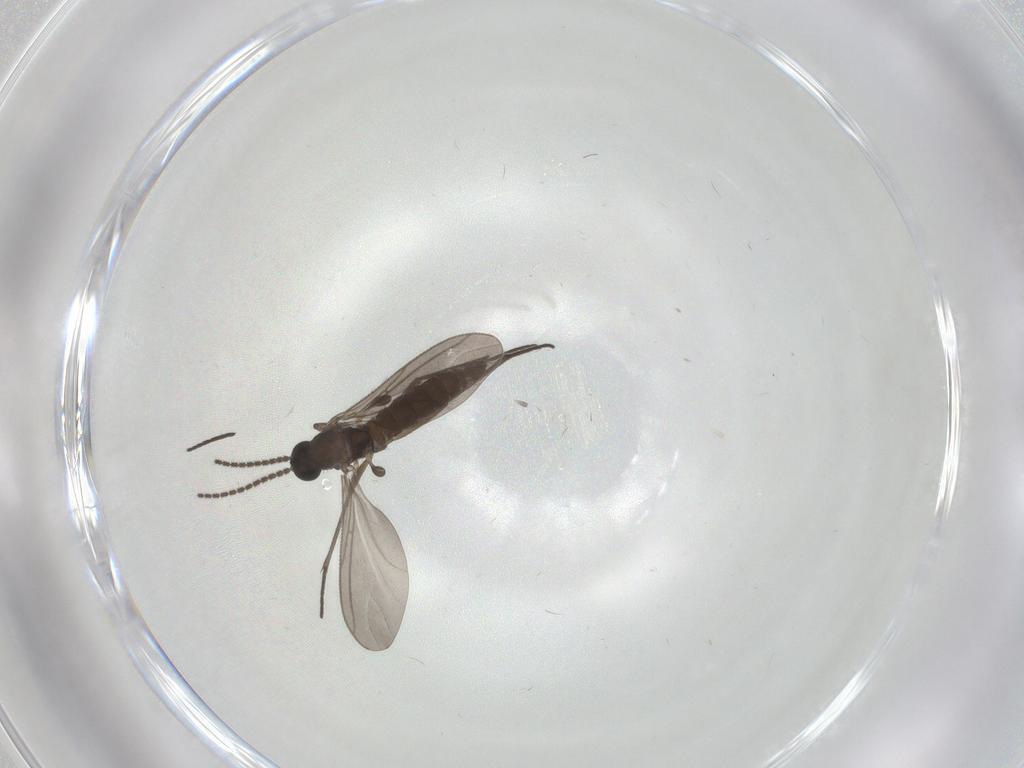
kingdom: Animalia
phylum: Arthropoda
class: Insecta
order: Diptera
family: Sciaridae
